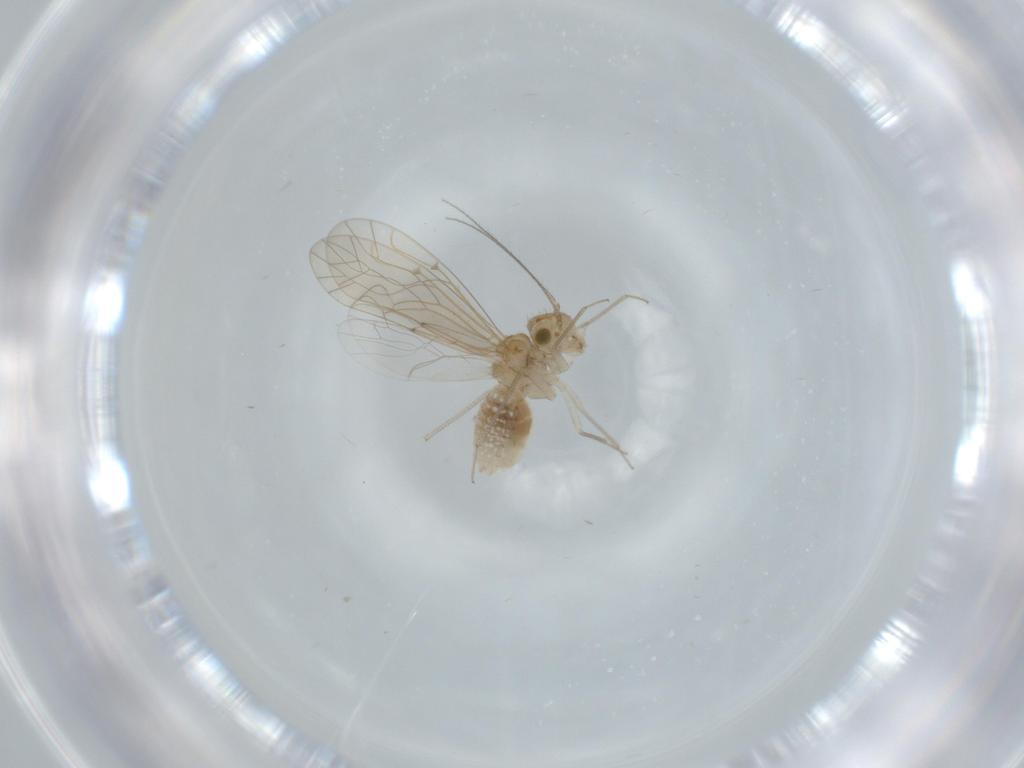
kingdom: Animalia
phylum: Arthropoda
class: Insecta
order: Psocodea
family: Lachesillidae
